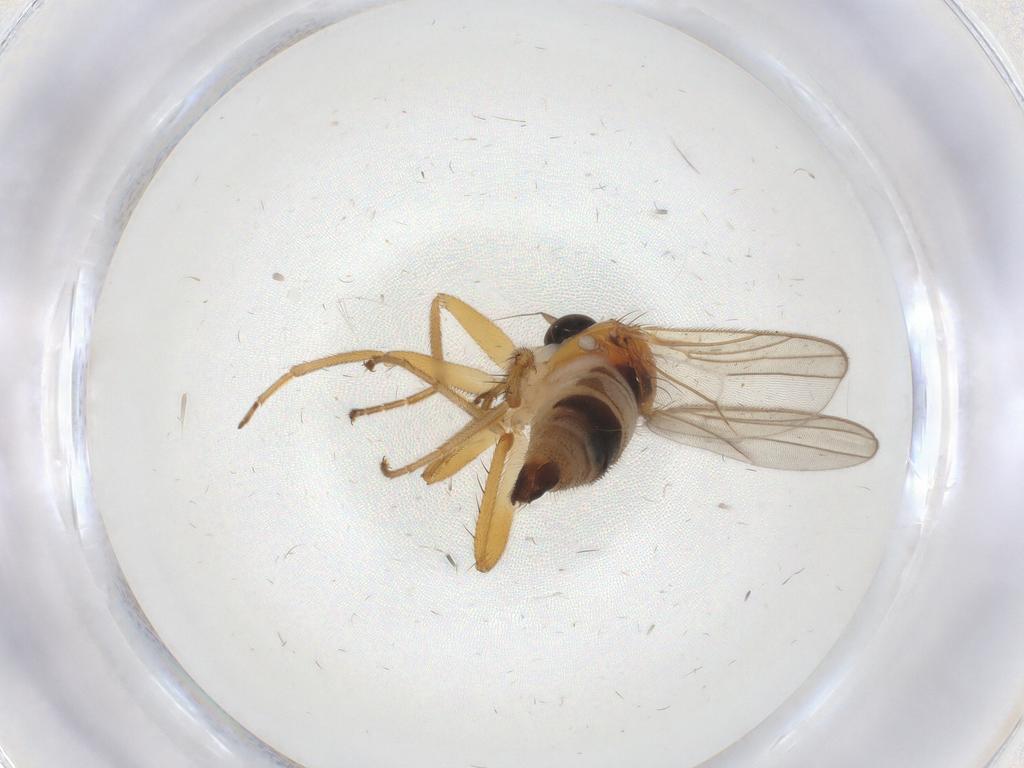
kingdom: Animalia
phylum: Arthropoda
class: Insecta
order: Diptera
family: Hybotidae
